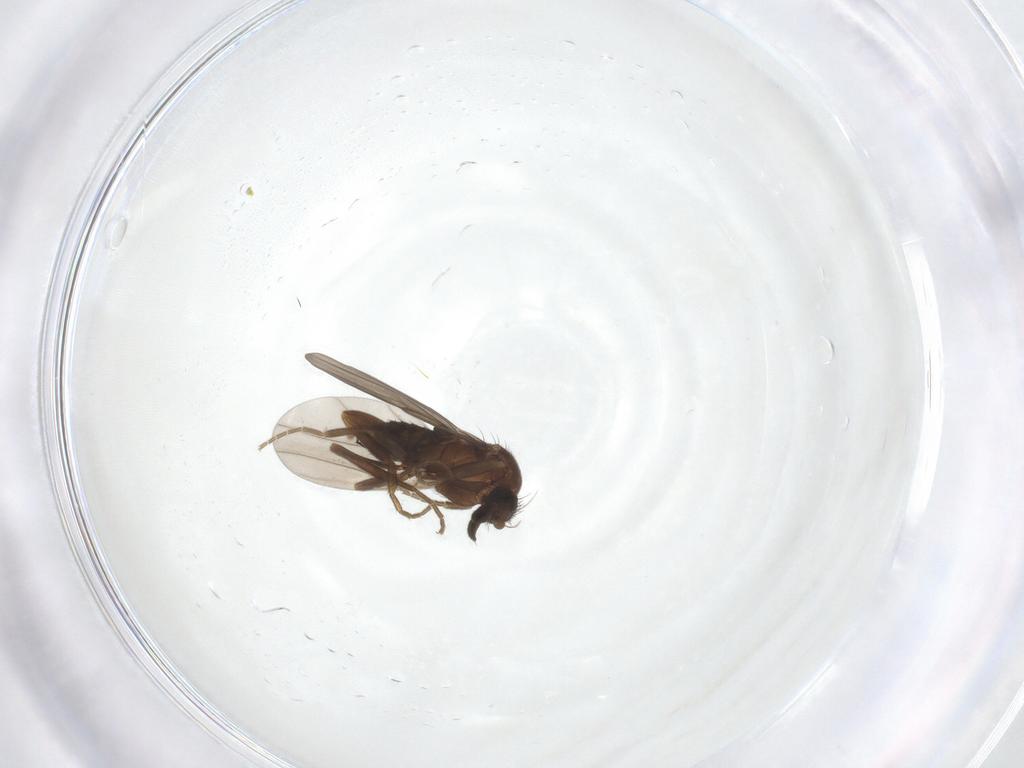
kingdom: Animalia
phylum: Arthropoda
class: Insecta
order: Diptera
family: Phoridae
